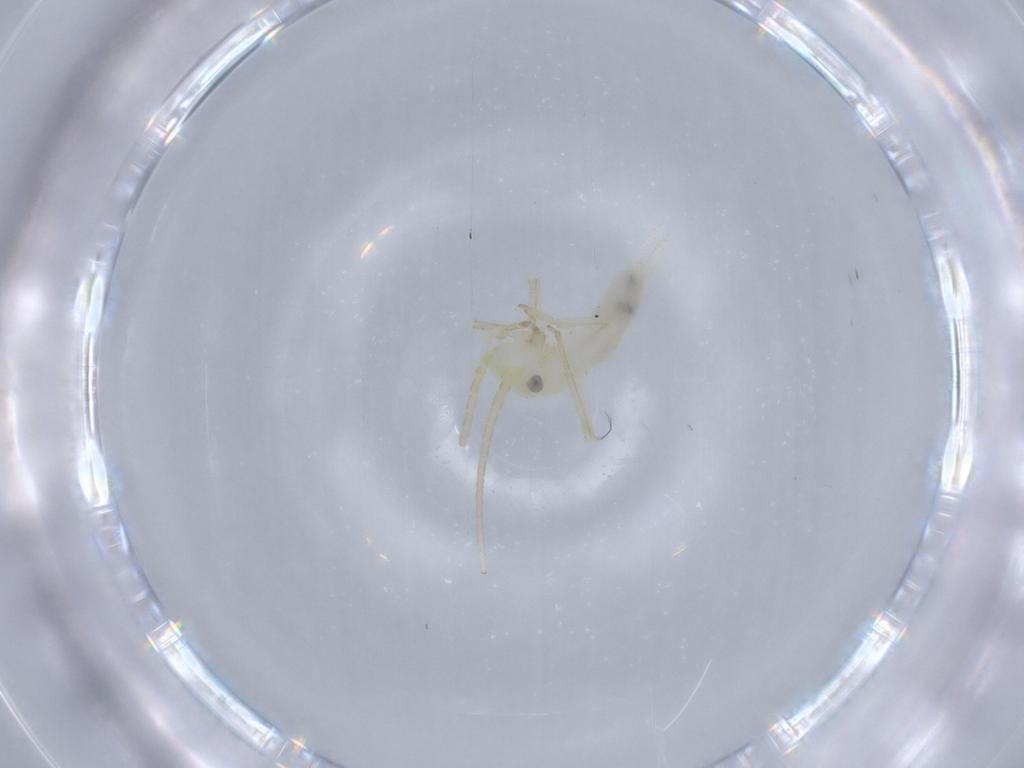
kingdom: Animalia
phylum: Arthropoda
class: Insecta
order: Orthoptera
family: Trigonidiidae
